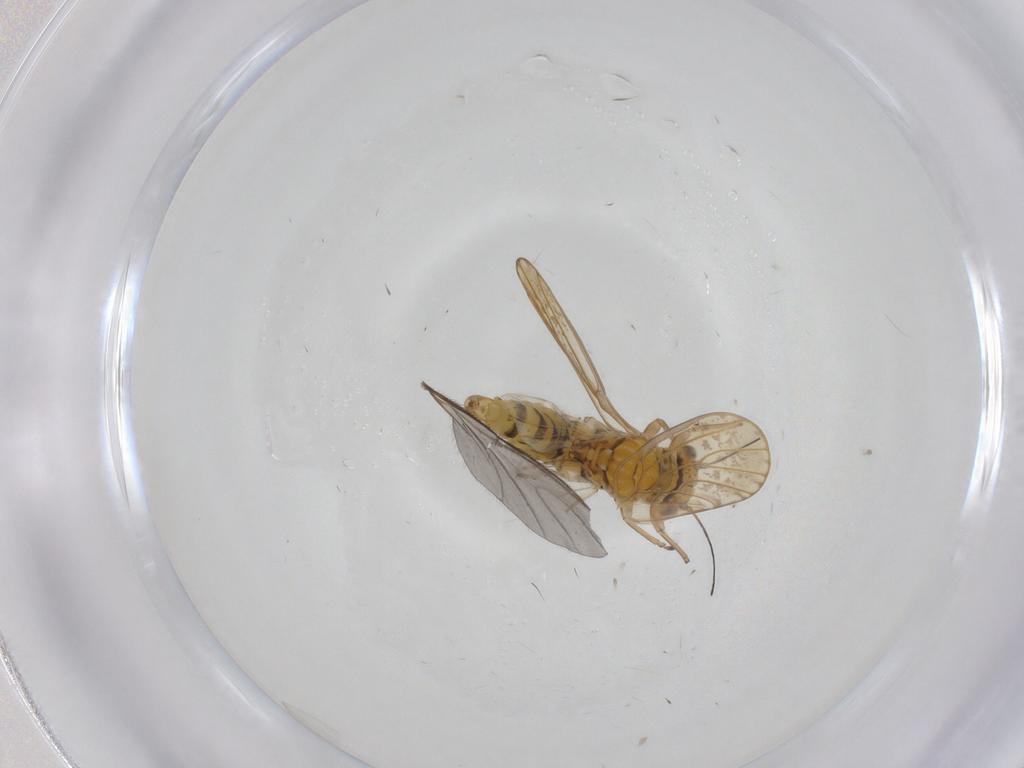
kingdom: Animalia
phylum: Arthropoda
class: Insecta
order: Diptera
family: Sciaridae
